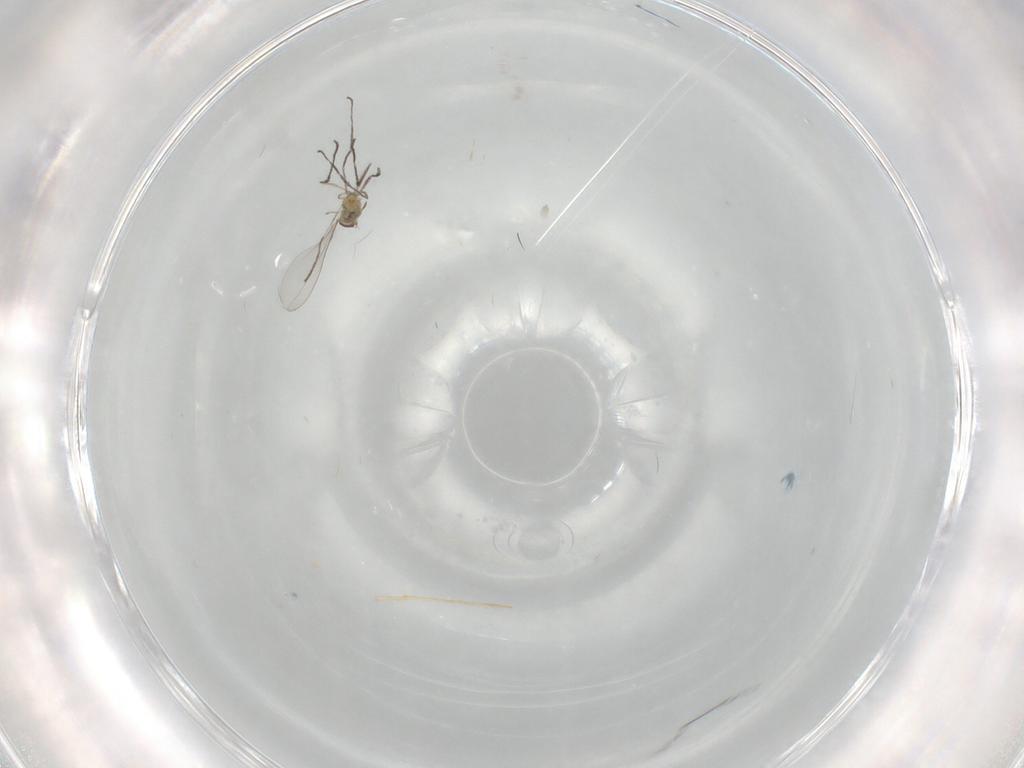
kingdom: Animalia
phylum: Arthropoda
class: Insecta
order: Diptera
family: Cecidomyiidae
